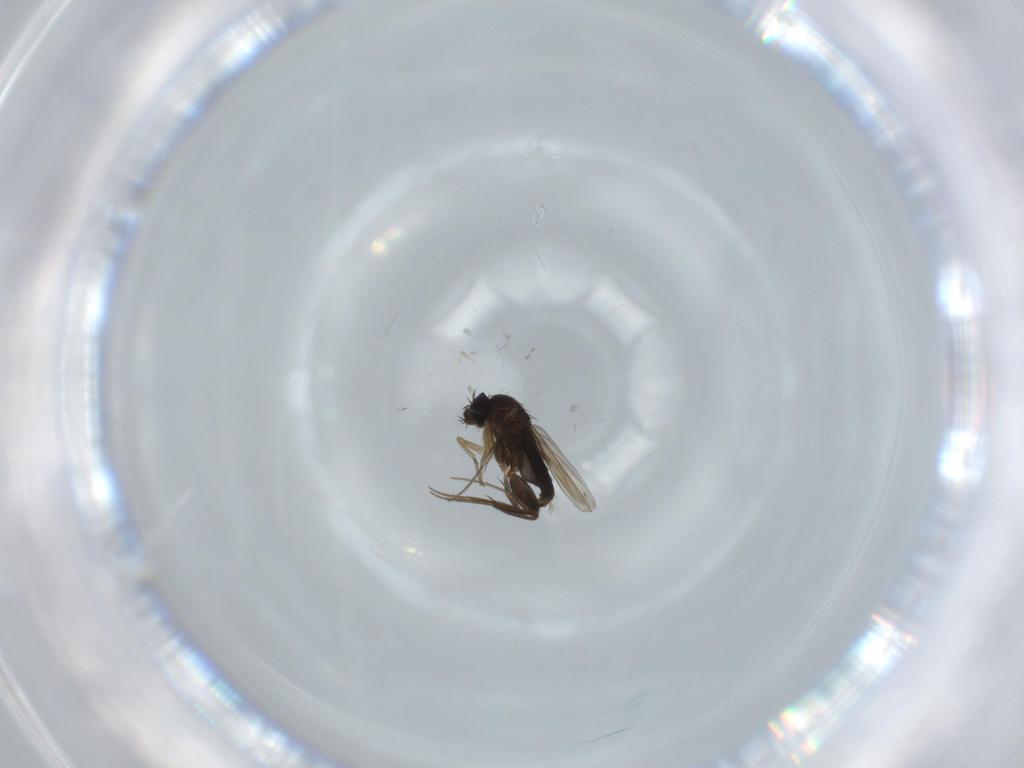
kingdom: Animalia
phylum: Arthropoda
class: Insecta
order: Diptera
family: Phoridae
